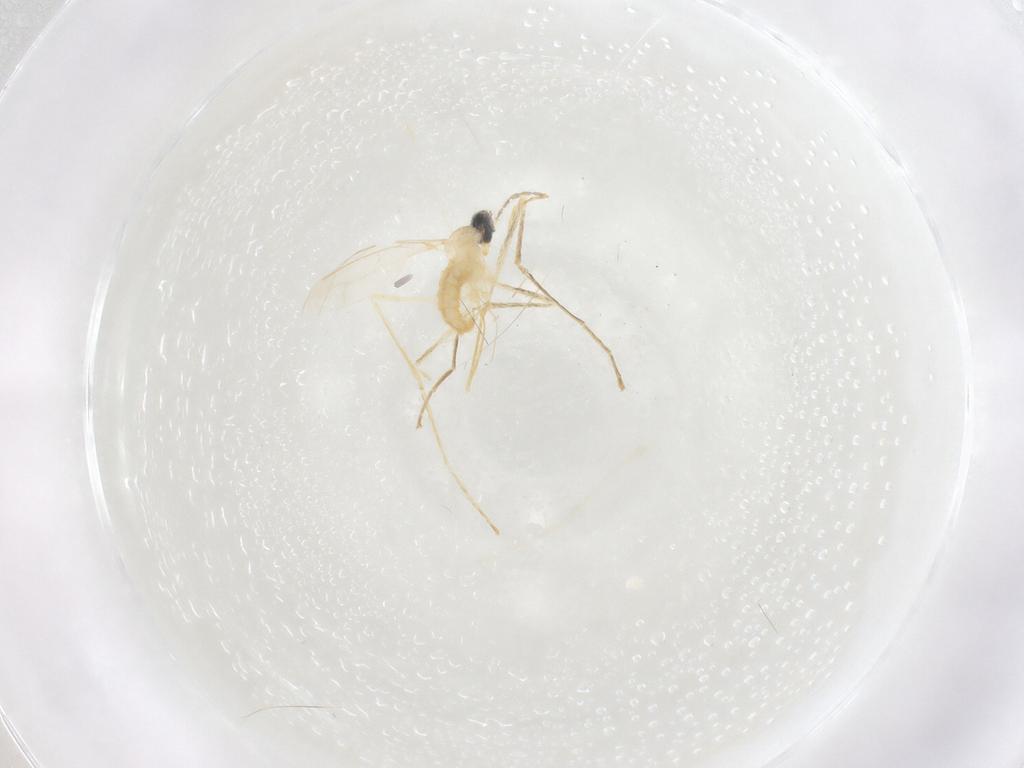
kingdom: Animalia
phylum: Arthropoda
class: Insecta
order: Diptera
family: Cecidomyiidae
